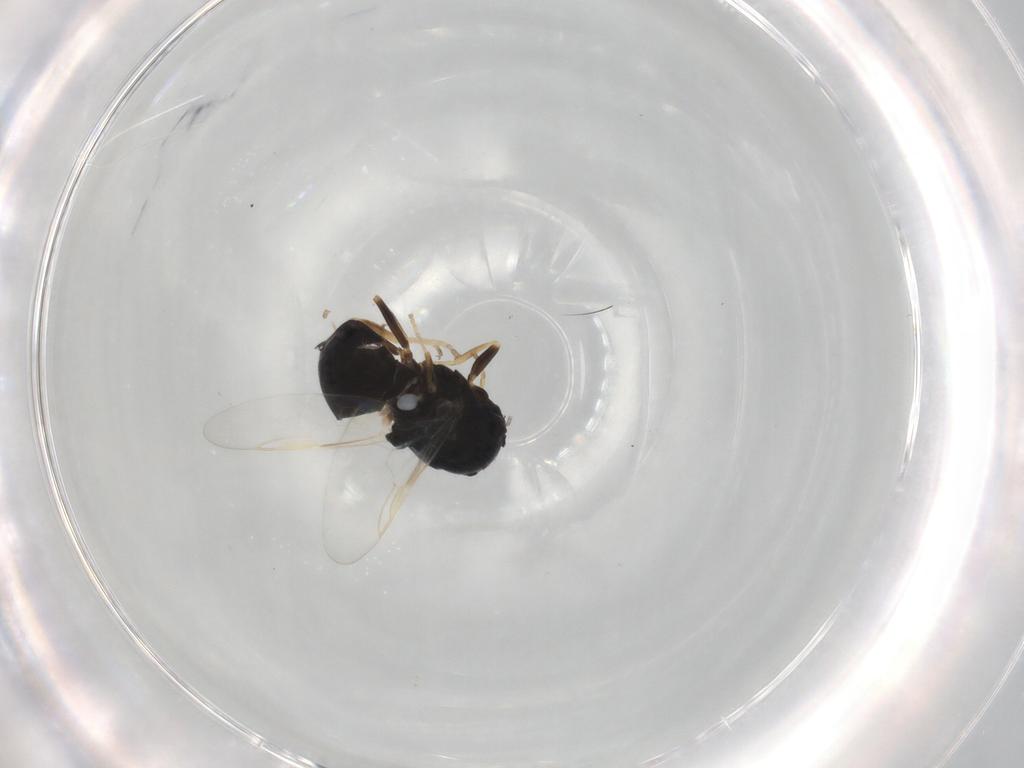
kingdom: Animalia
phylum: Arthropoda
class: Insecta
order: Diptera
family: Stratiomyidae
